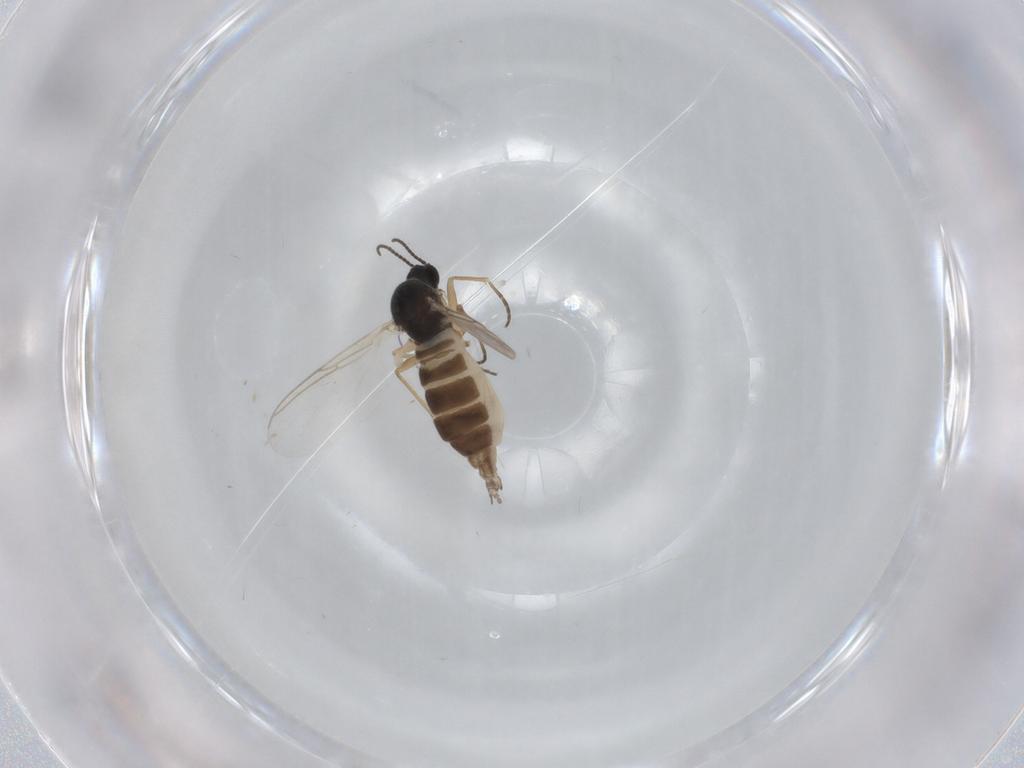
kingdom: Animalia
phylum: Arthropoda
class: Insecta
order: Diptera
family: Sciaridae
